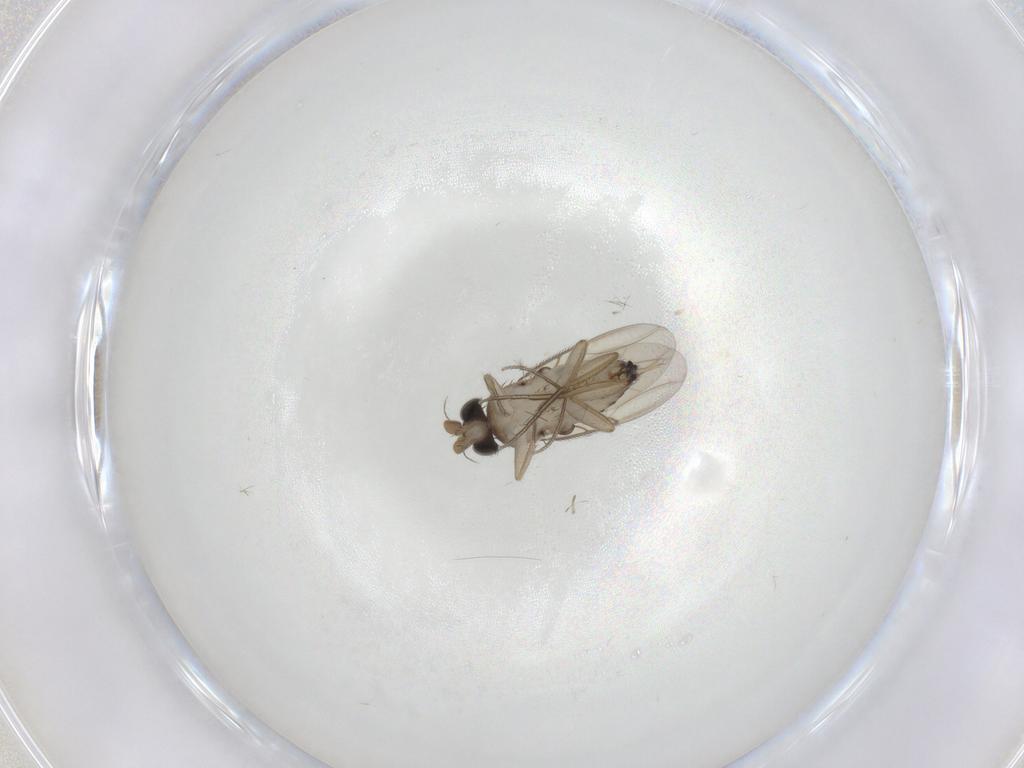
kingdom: Animalia
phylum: Arthropoda
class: Insecta
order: Diptera
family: Cecidomyiidae
